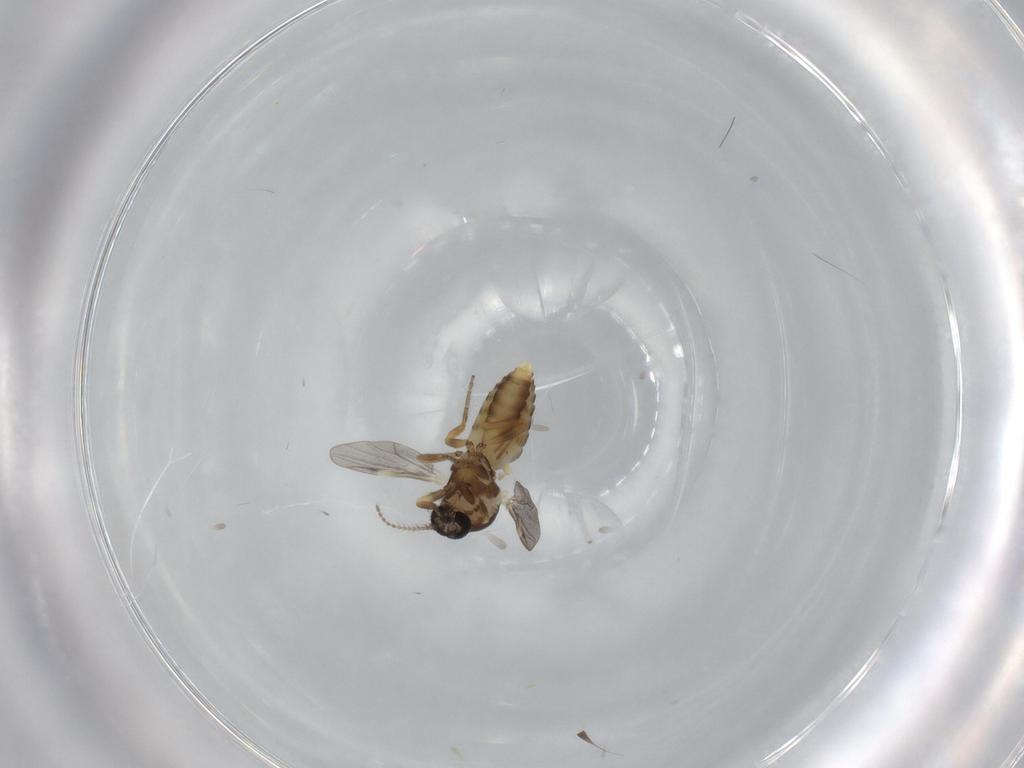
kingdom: Animalia
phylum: Arthropoda
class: Insecta
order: Diptera
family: Ceratopogonidae
